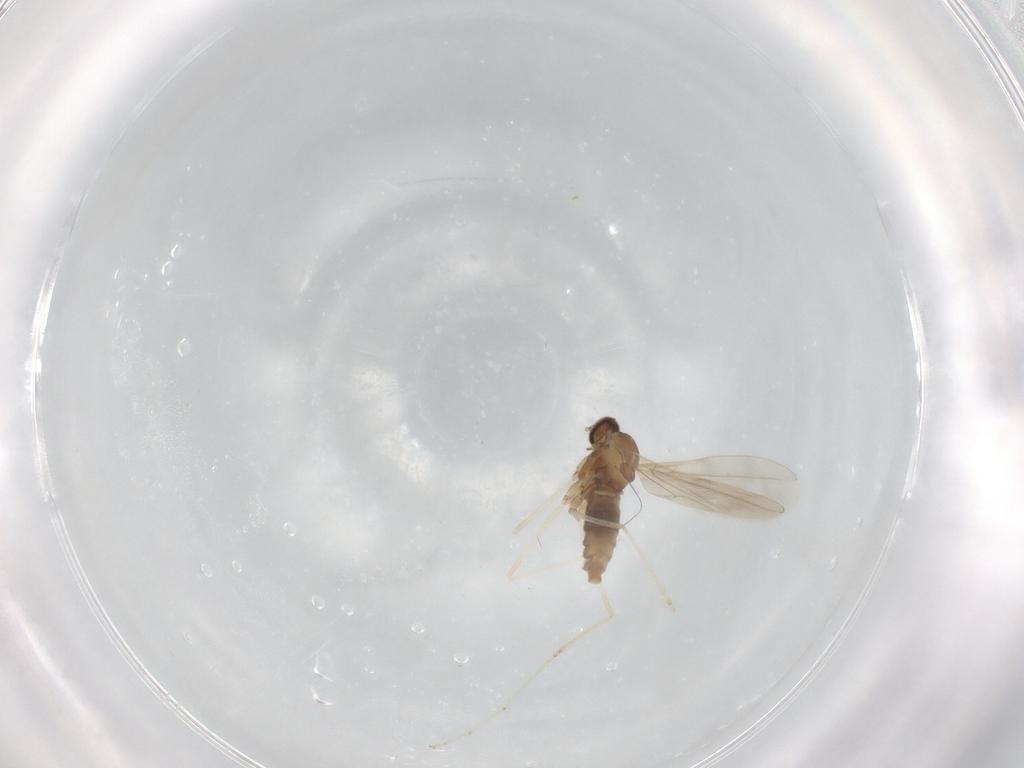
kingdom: Animalia
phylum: Arthropoda
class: Insecta
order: Diptera
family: Psychodidae
